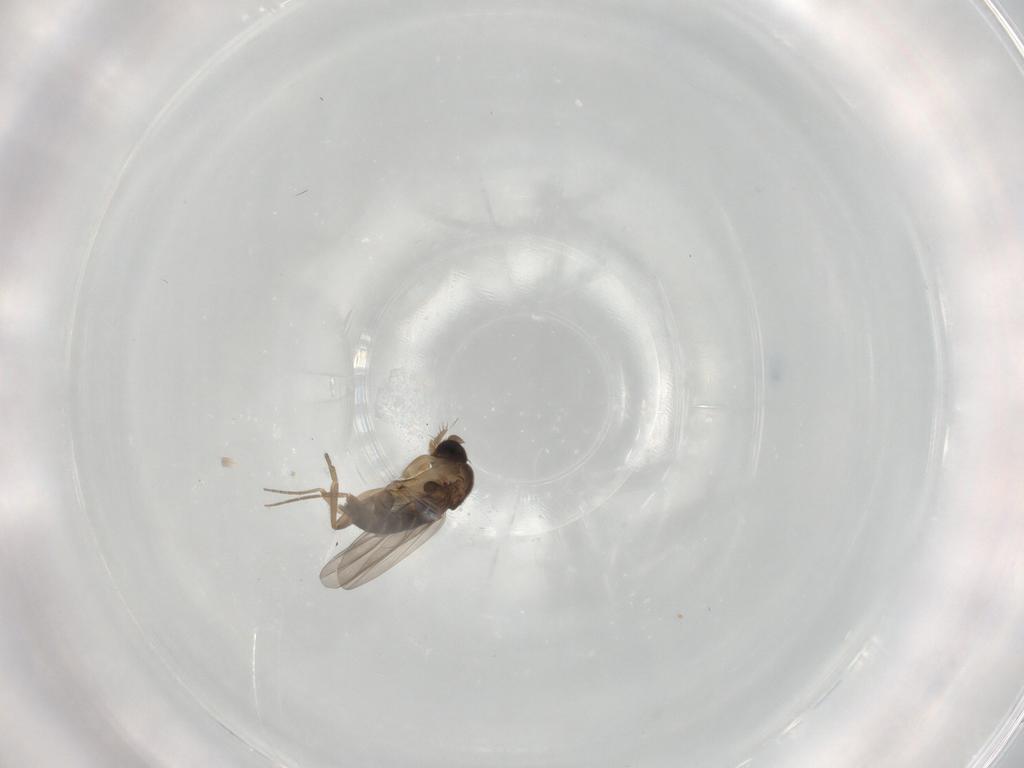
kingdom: Animalia
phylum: Arthropoda
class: Insecta
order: Diptera
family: Phoridae
